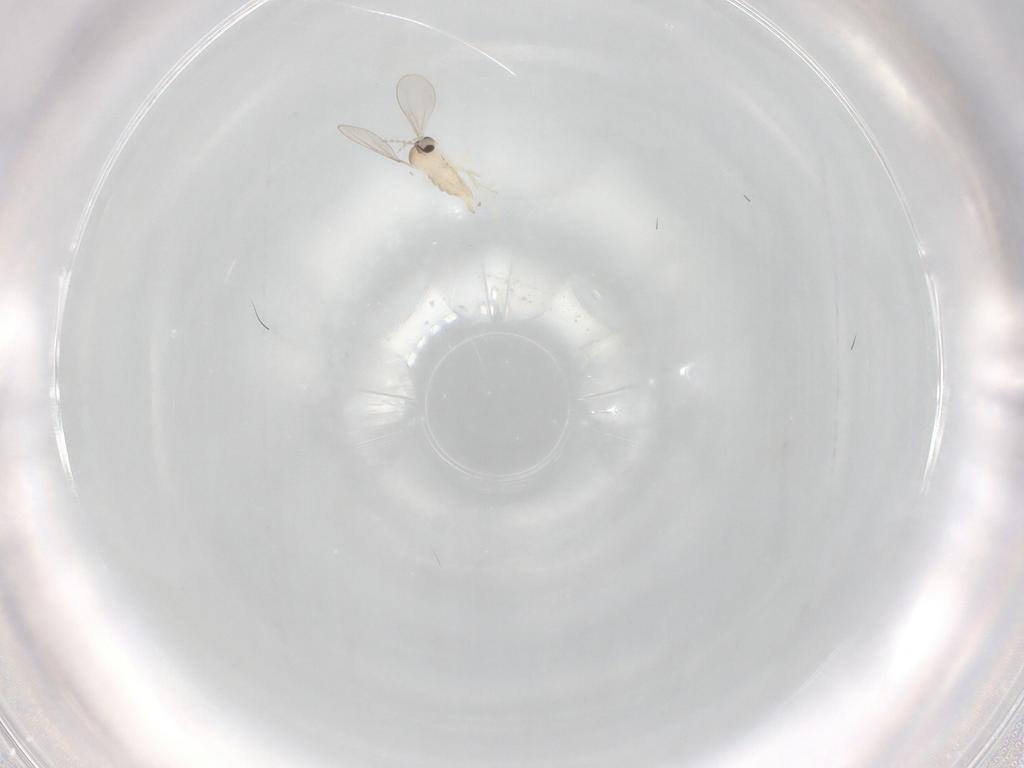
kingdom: Animalia
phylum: Arthropoda
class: Insecta
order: Diptera
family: Cecidomyiidae
